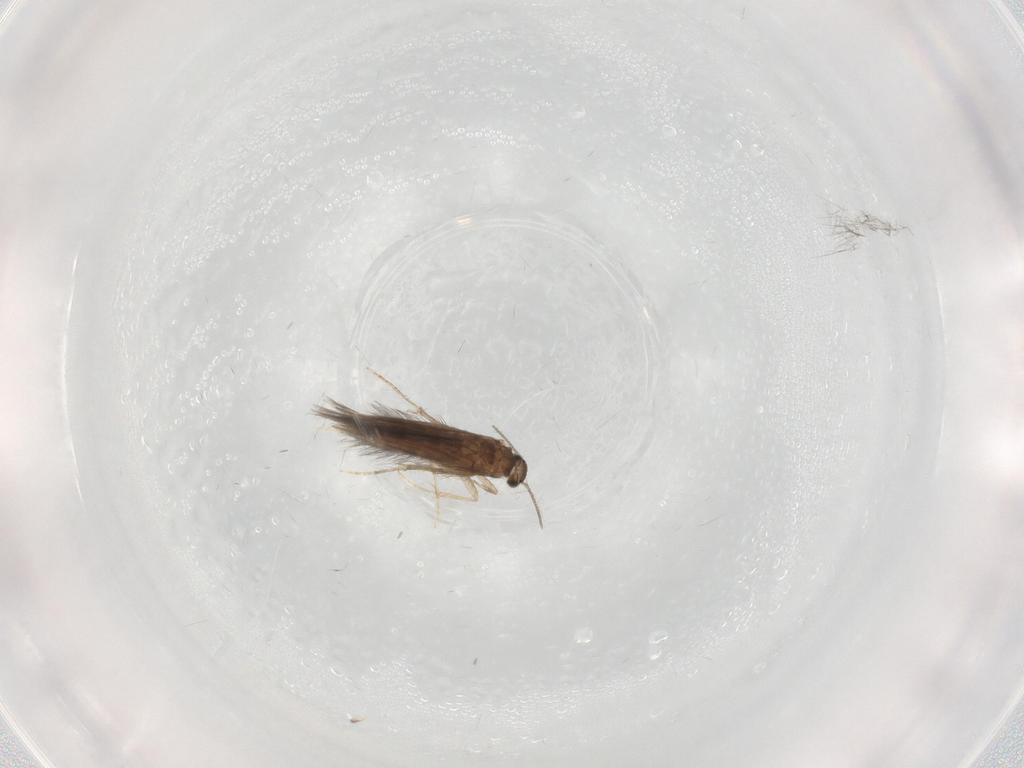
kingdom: Animalia
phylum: Arthropoda
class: Insecta
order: Trichoptera
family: Hydroptilidae
